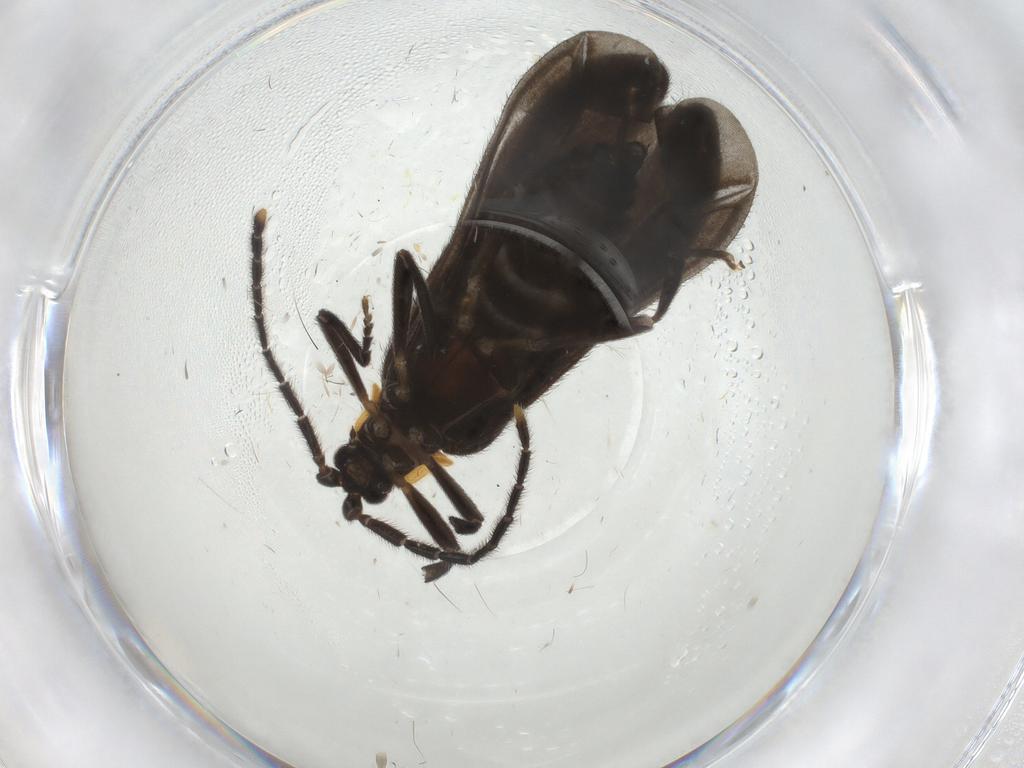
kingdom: Animalia
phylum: Arthropoda
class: Insecta
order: Coleoptera
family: Lycidae
